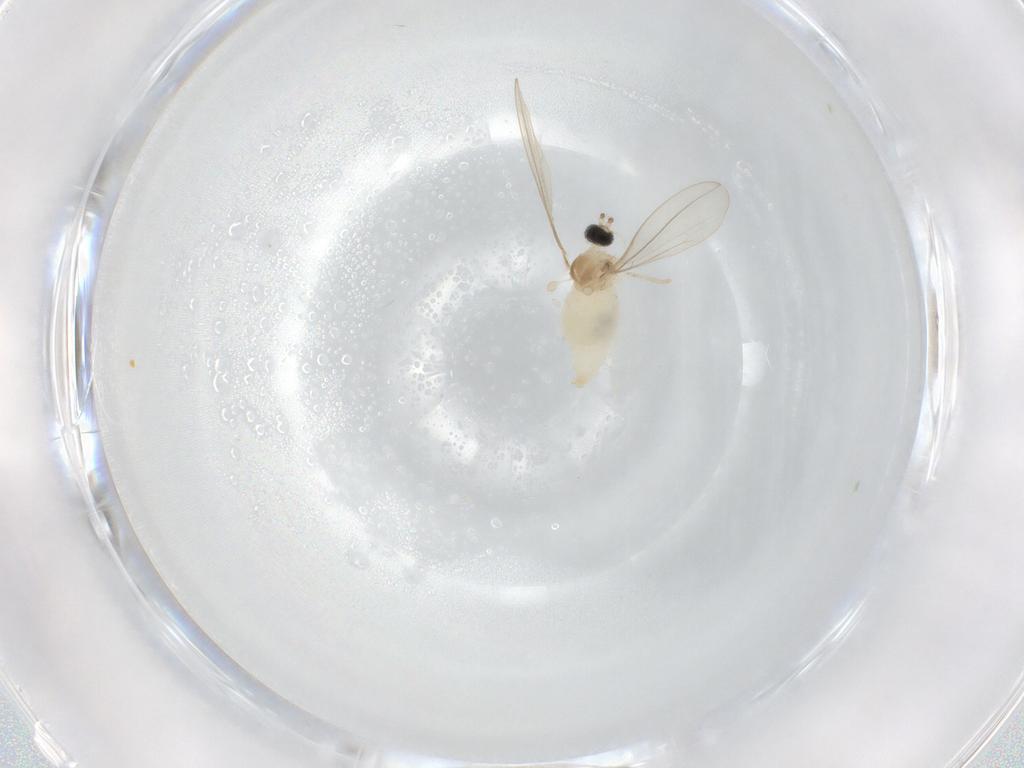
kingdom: Animalia
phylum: Arthropoda
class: Insecta
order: Diptera
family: Cecidomyiidae
